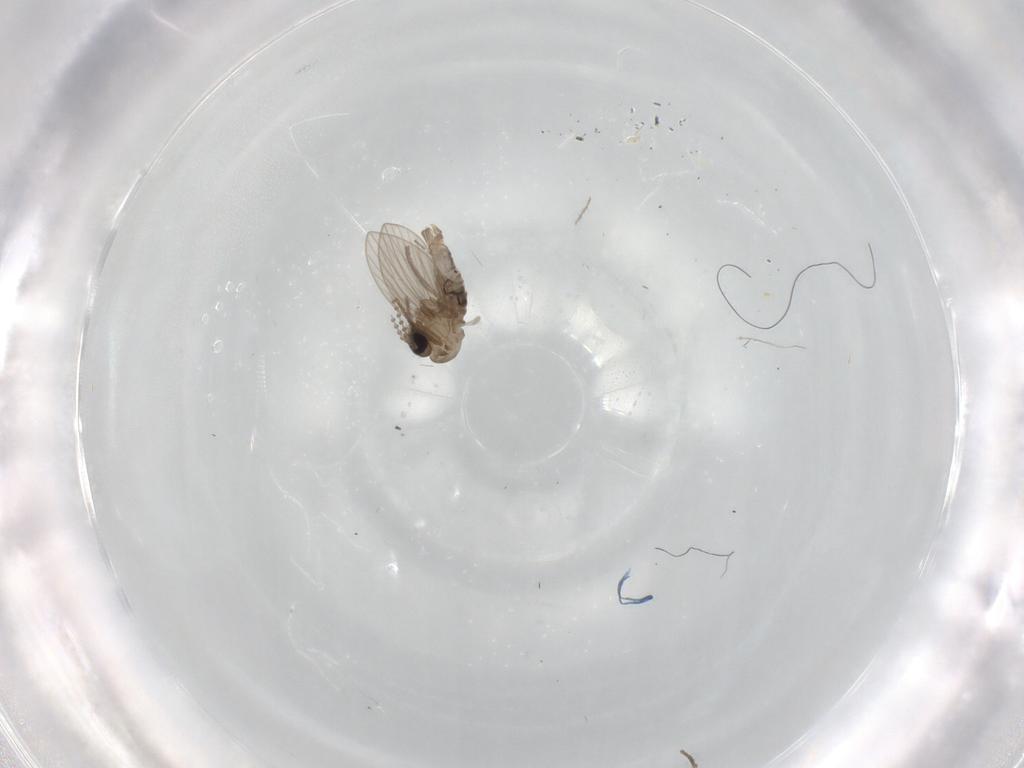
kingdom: Animalia
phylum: Arthropoda
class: Insecta
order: Diptera
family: Psychodidae
